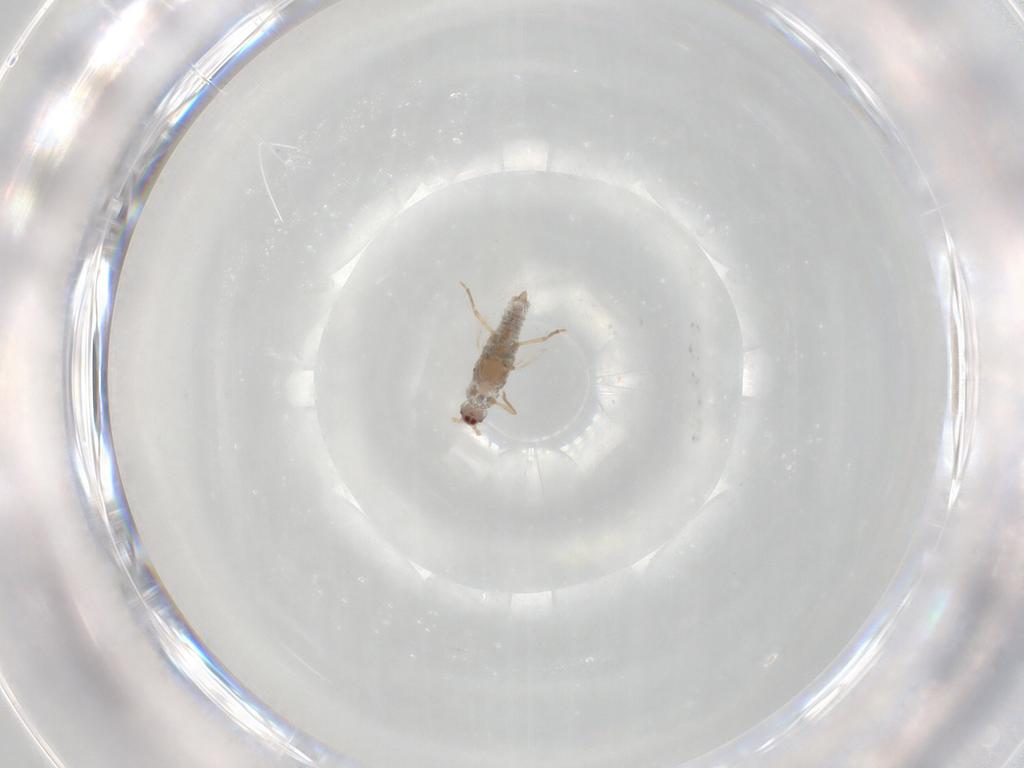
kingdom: Animalia
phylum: Arthropoda
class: Insecta
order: Hemiptera
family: Pseudococcidae
